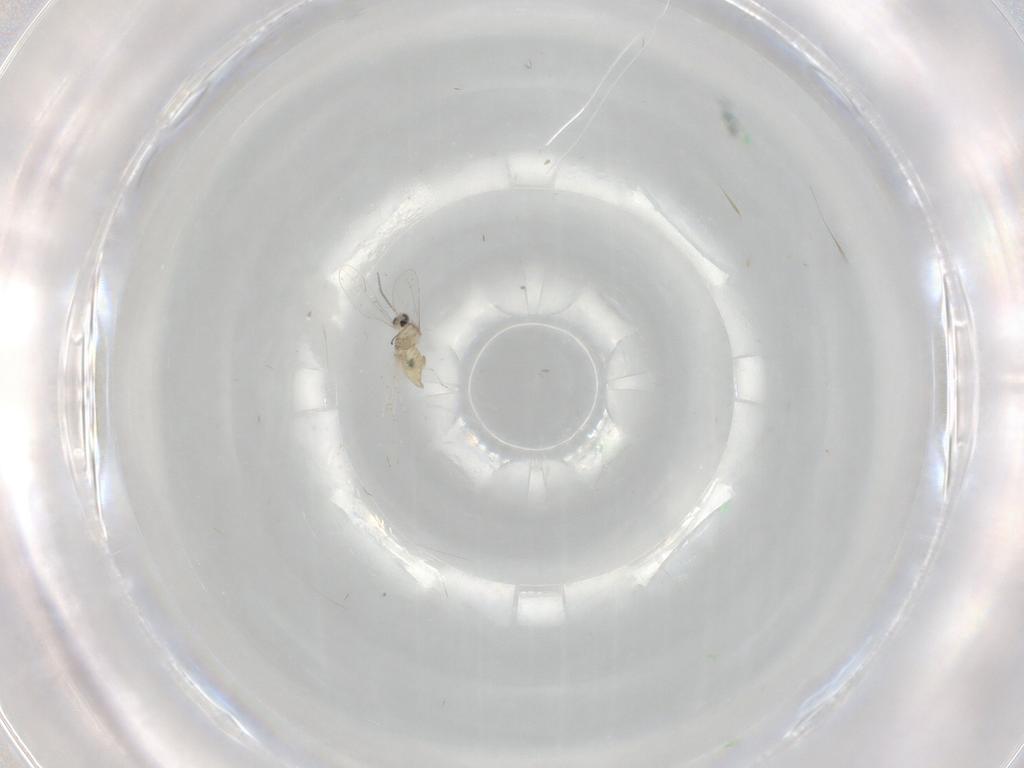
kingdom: Animalia
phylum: Arthropoda
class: Insecta
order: Diptera
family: Cecidomyiidae
